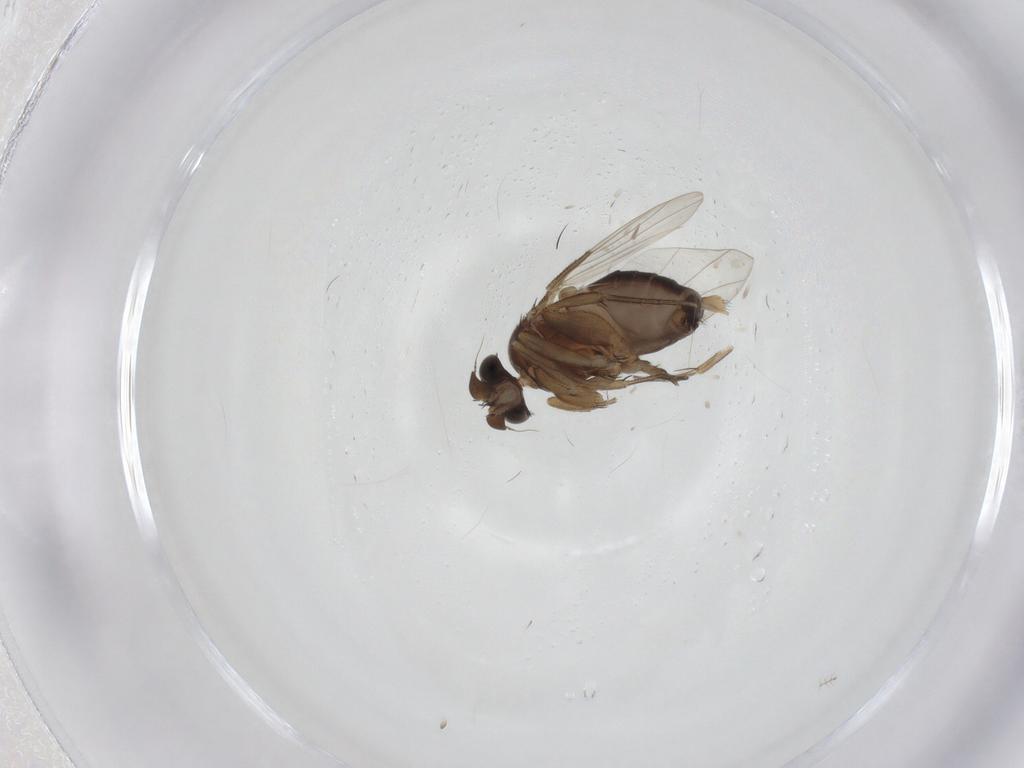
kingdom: Animalia
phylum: Arthropoda
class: Insecta
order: Diptera
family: Phoridae
